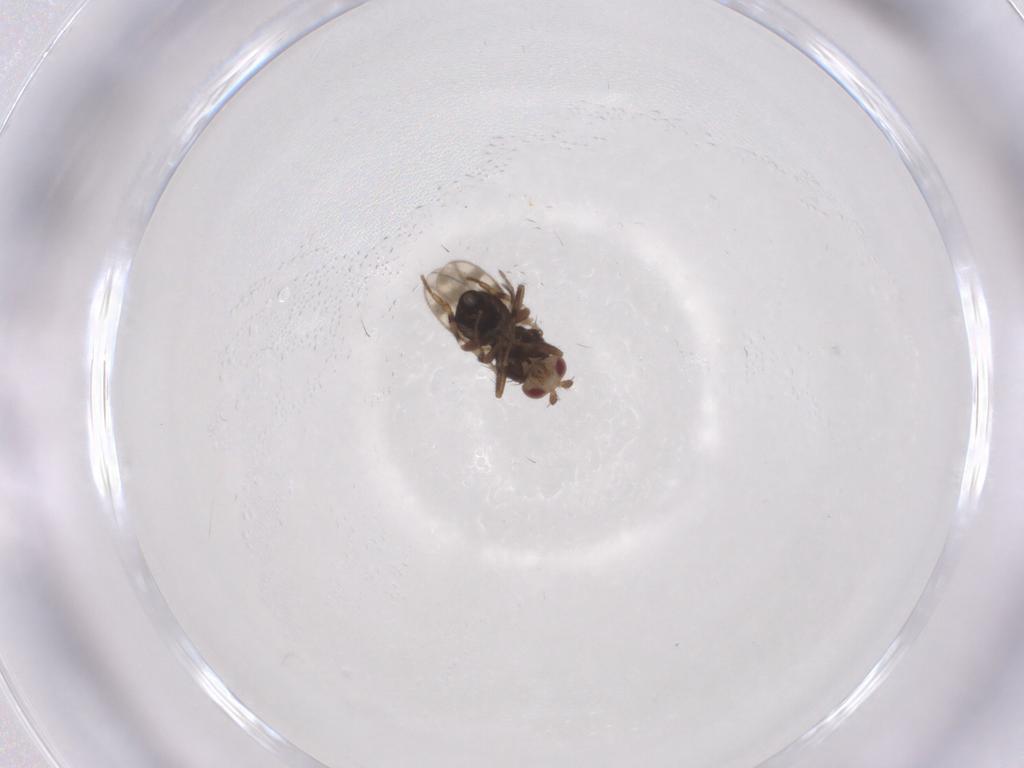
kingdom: Animalia
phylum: Arthropoda
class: Insecta
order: Diptera
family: Sphaeroceridae
